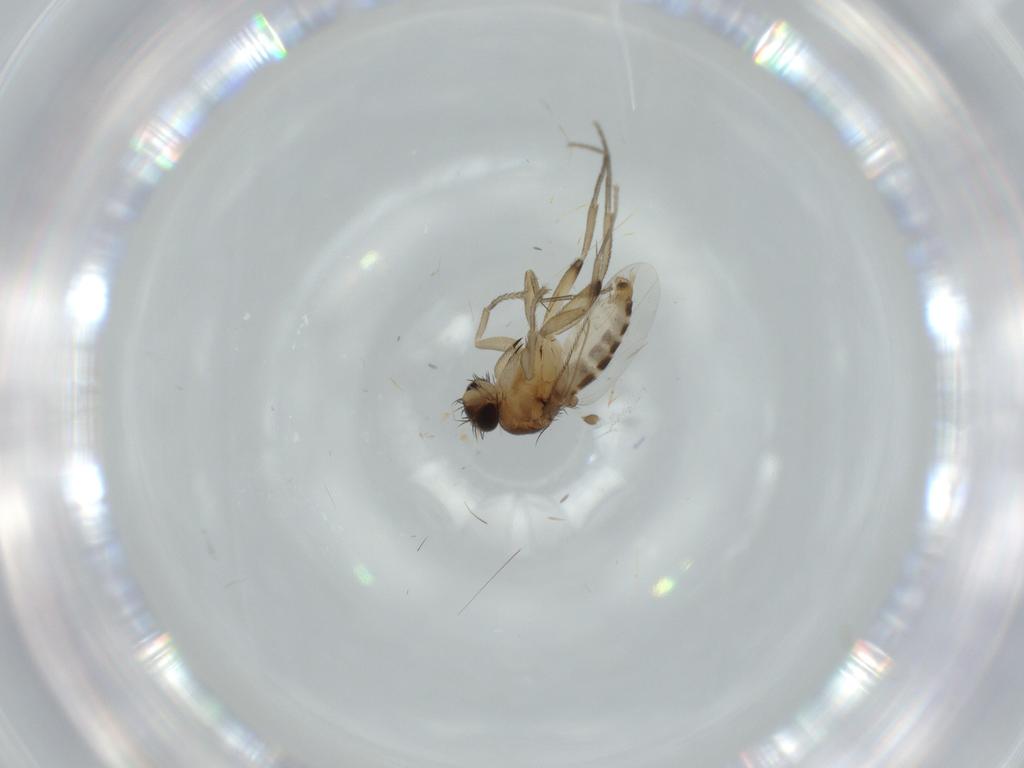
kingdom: Animalia
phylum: Arthropoda
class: Insecta
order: Diptera
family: Phoridae
